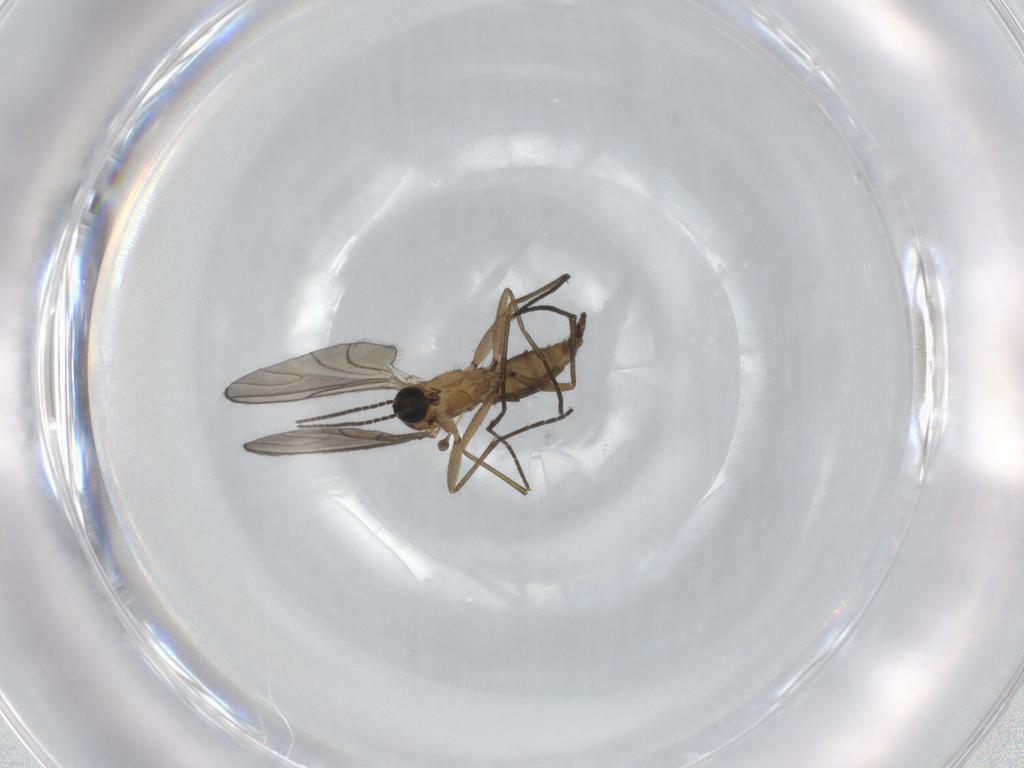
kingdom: Animalia
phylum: Arthropoda
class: Insecta
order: Diptera
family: Sciaridae
